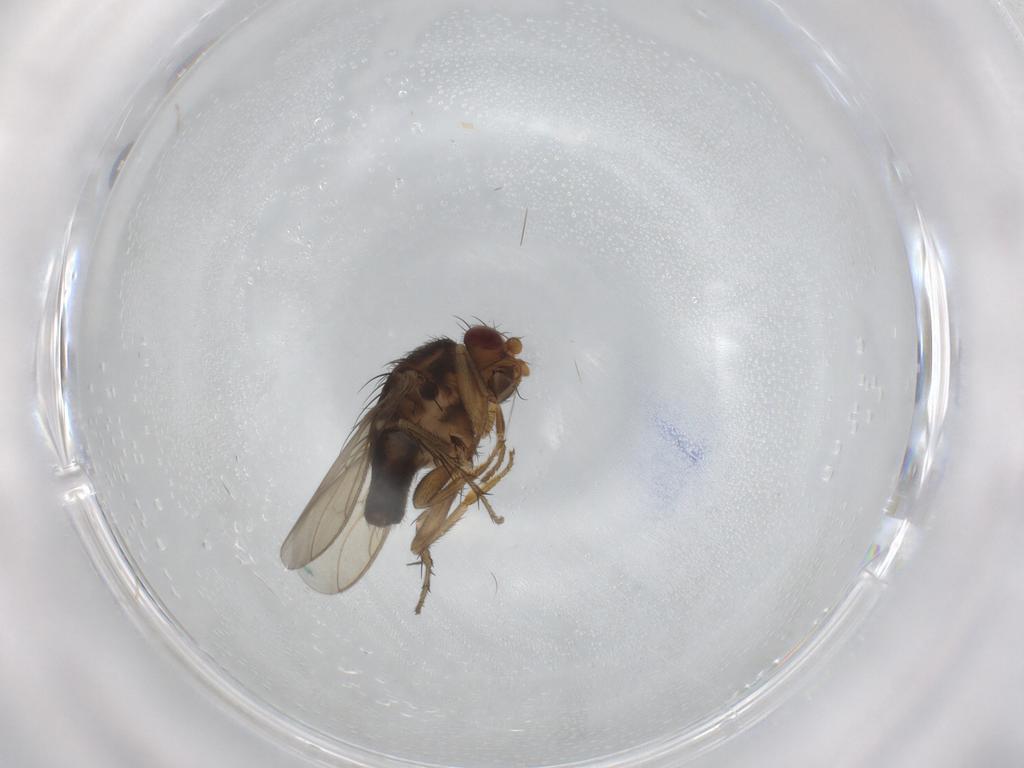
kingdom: Animalia
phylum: Arthropoda
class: Insecta
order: Diptera
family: Sphaeroceridae
